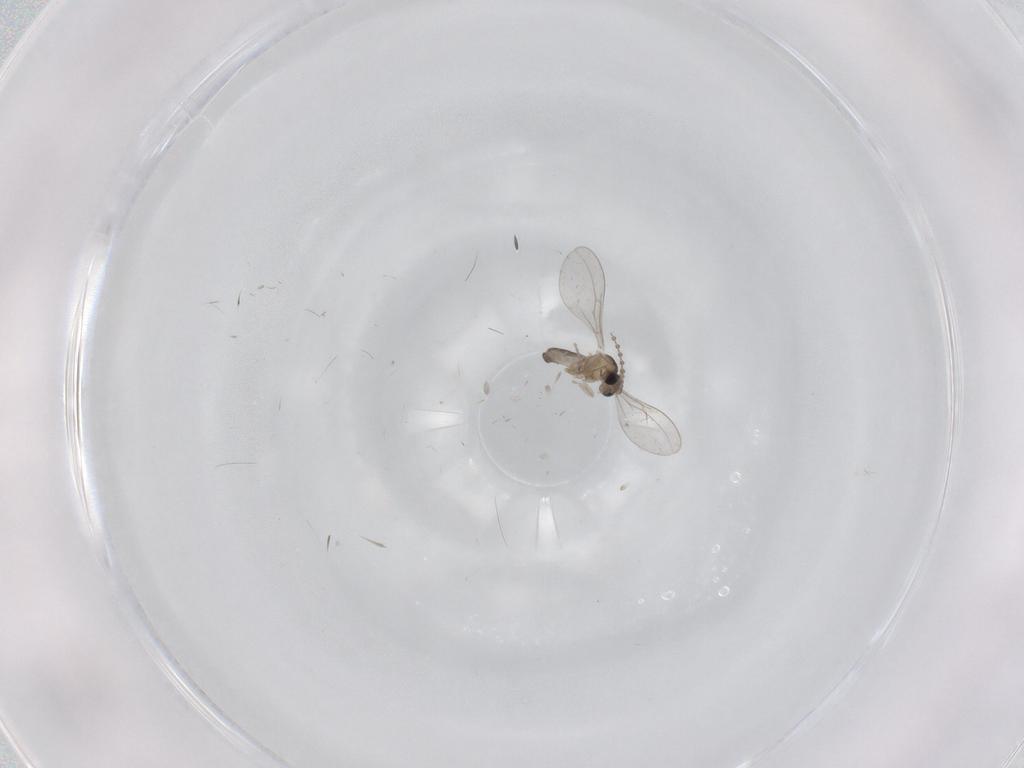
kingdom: Animalia
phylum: Arthropoda
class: Insecta
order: Diptera
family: Cecidomyiidae
